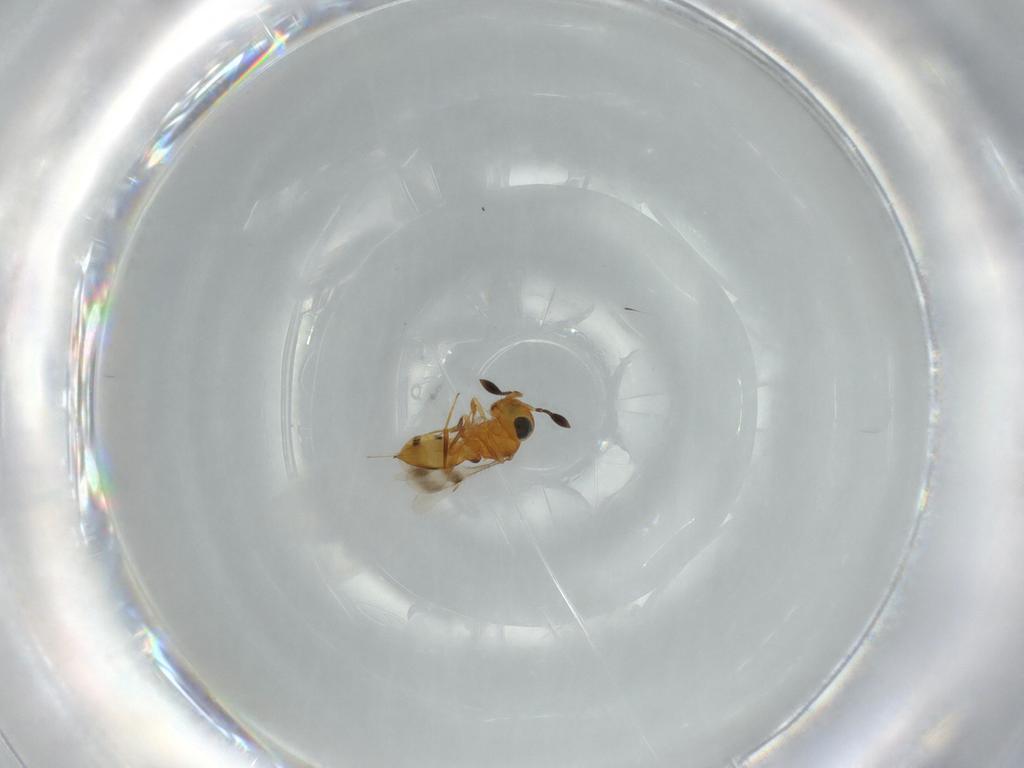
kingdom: Animalia
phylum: Arthropoda
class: Insecta
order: Hymenoptera
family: Scelionidae
